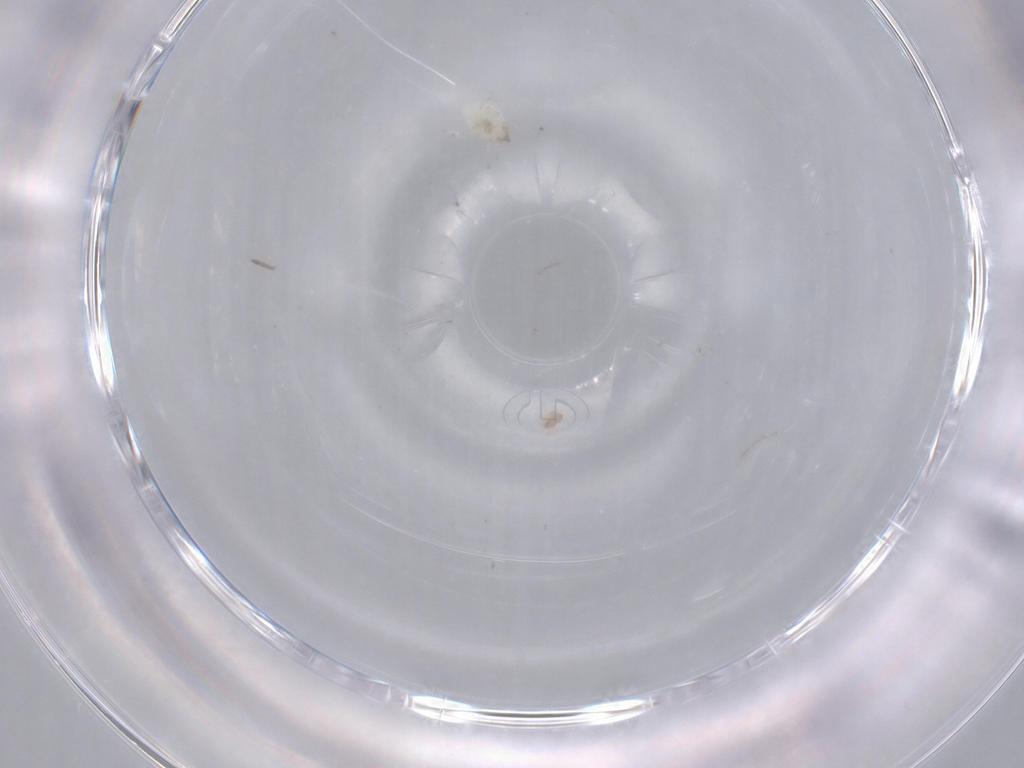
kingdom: Animalia
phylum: Arthropoda
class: Insecta
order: Neuroptera
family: Coniopterygidae
